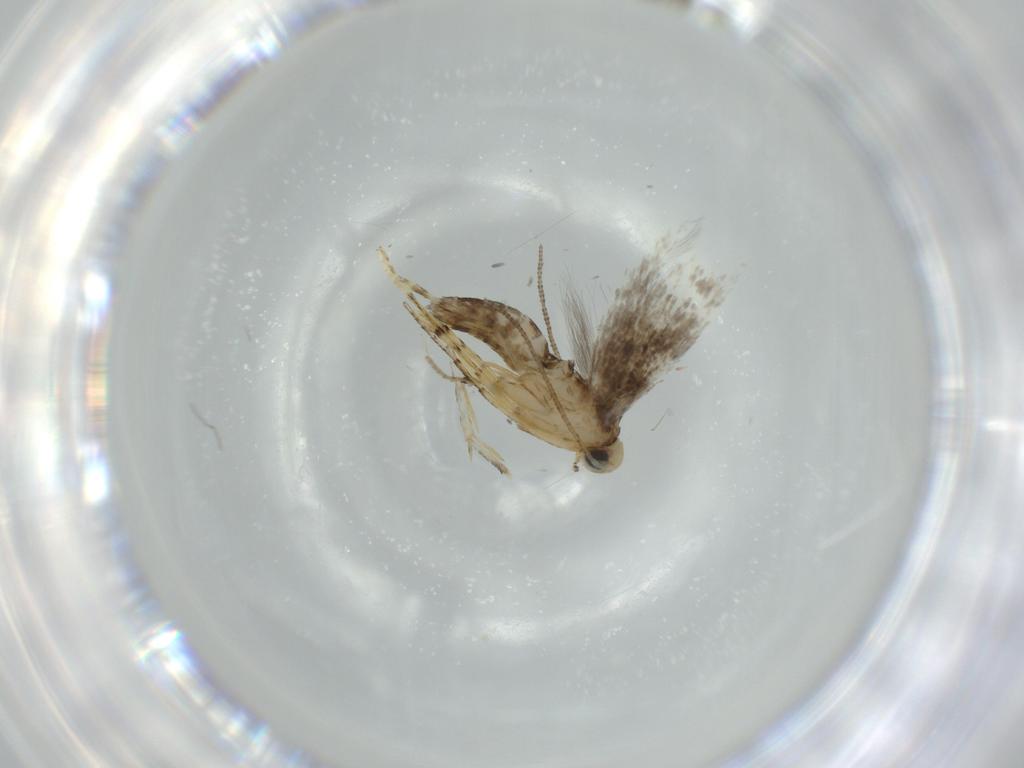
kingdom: Animalia
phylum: Arthropoda
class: Insecta
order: Lepidoptera
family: Argyresthiidae
